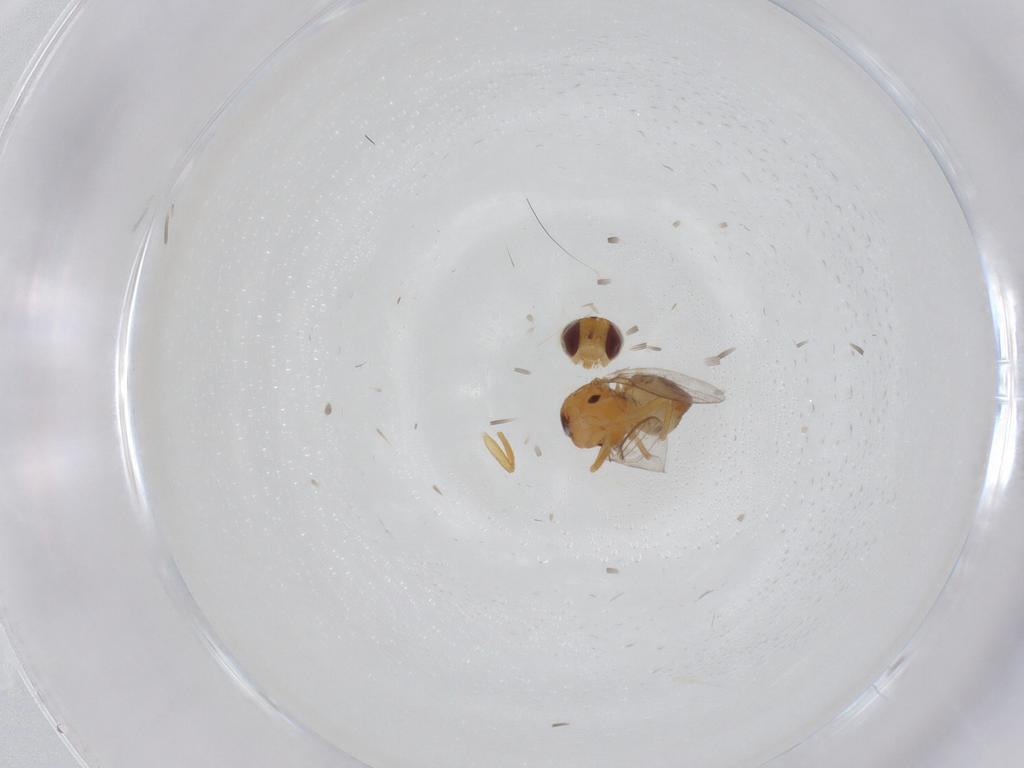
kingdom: Animalia
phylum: Arthropoda
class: Insecta
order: Diptera
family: Chloropidae
